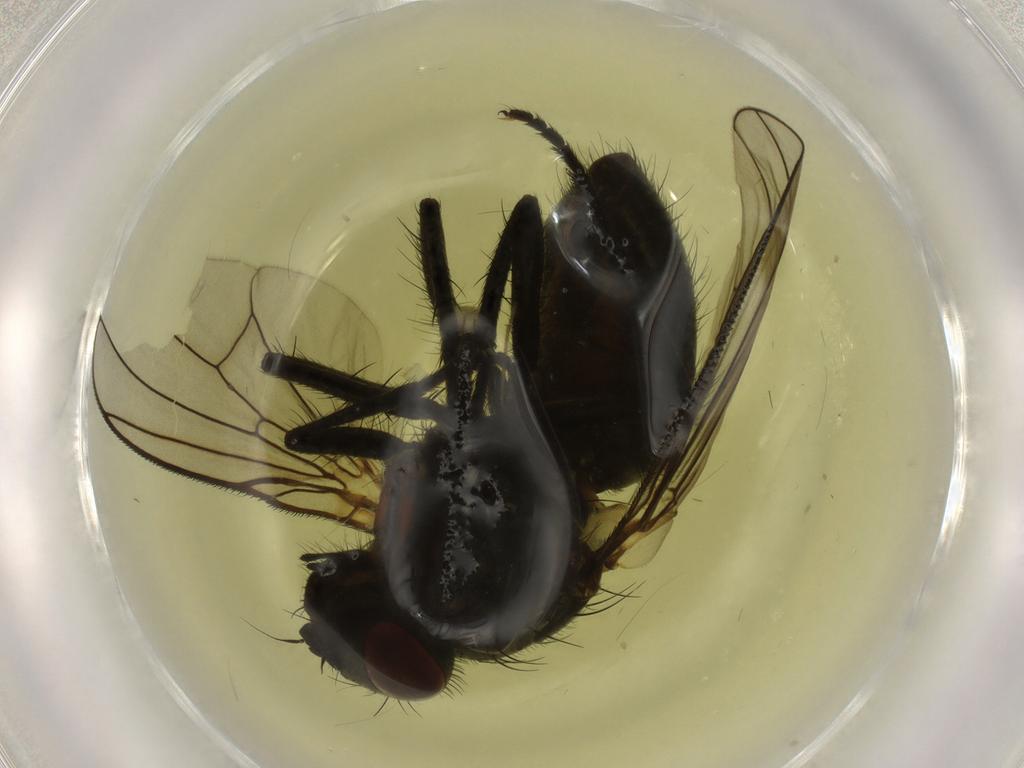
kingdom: Animalia
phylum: Arthropoda
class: Insecta
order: Diptera
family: Muscidae
